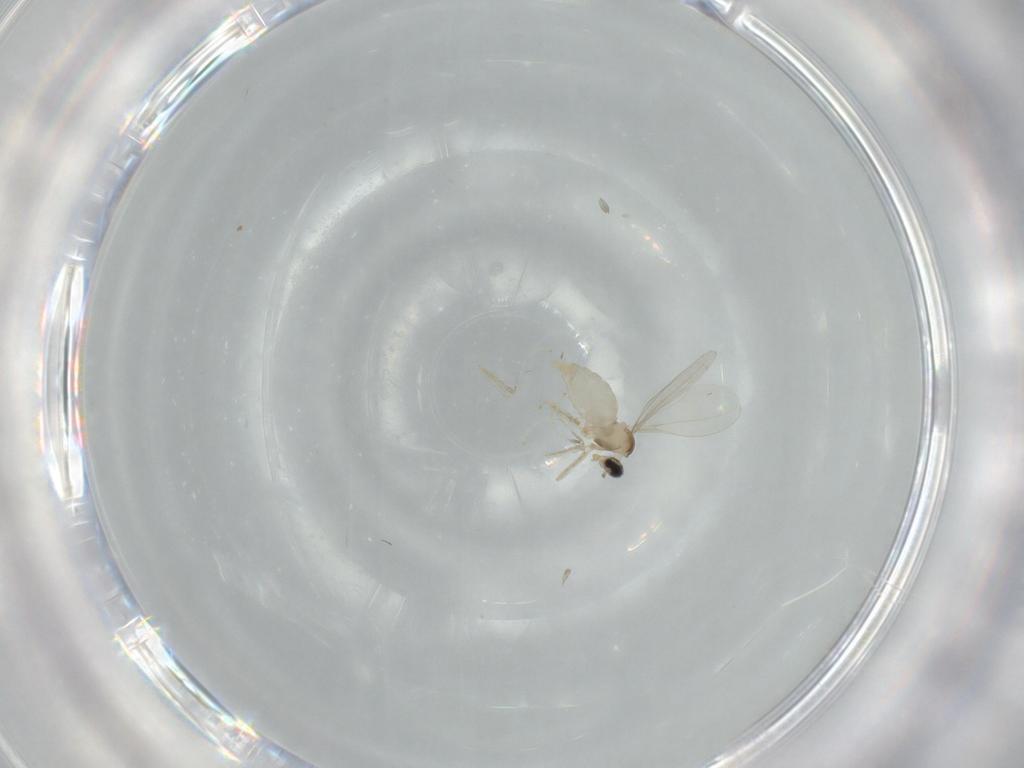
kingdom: Animalia
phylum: Arthropoda
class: Insecta
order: Diptera
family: Cecidomyiidae
